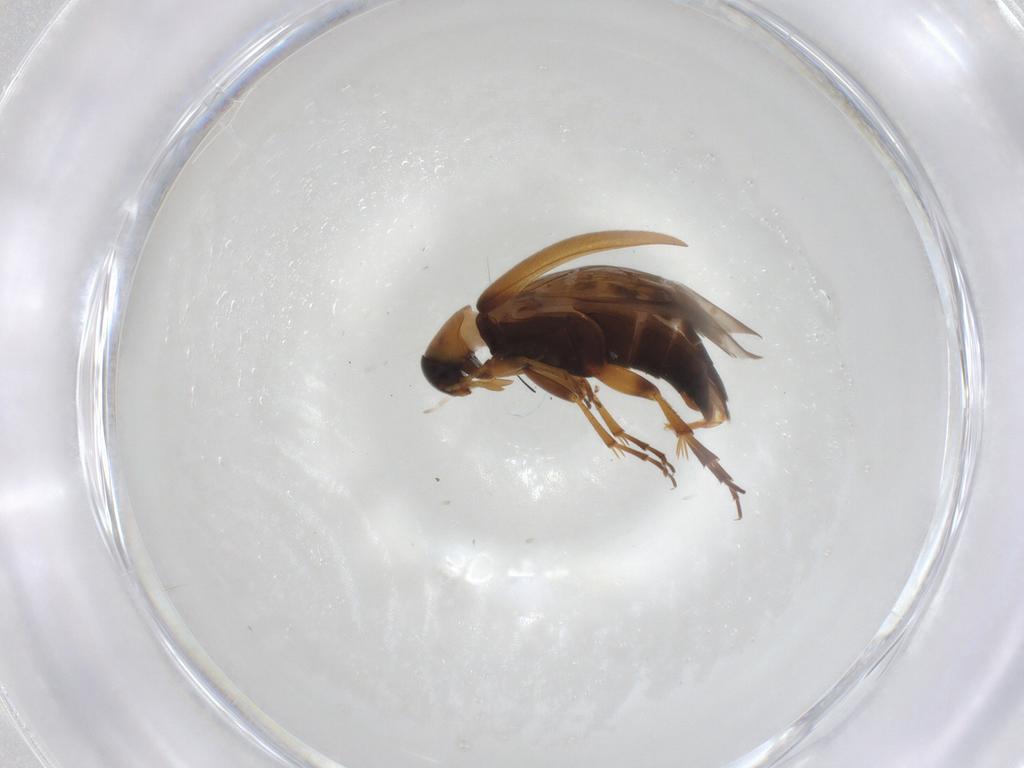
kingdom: Animalia
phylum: Arthropoda
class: Insecta
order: Coleoptera
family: Scraptiidae
